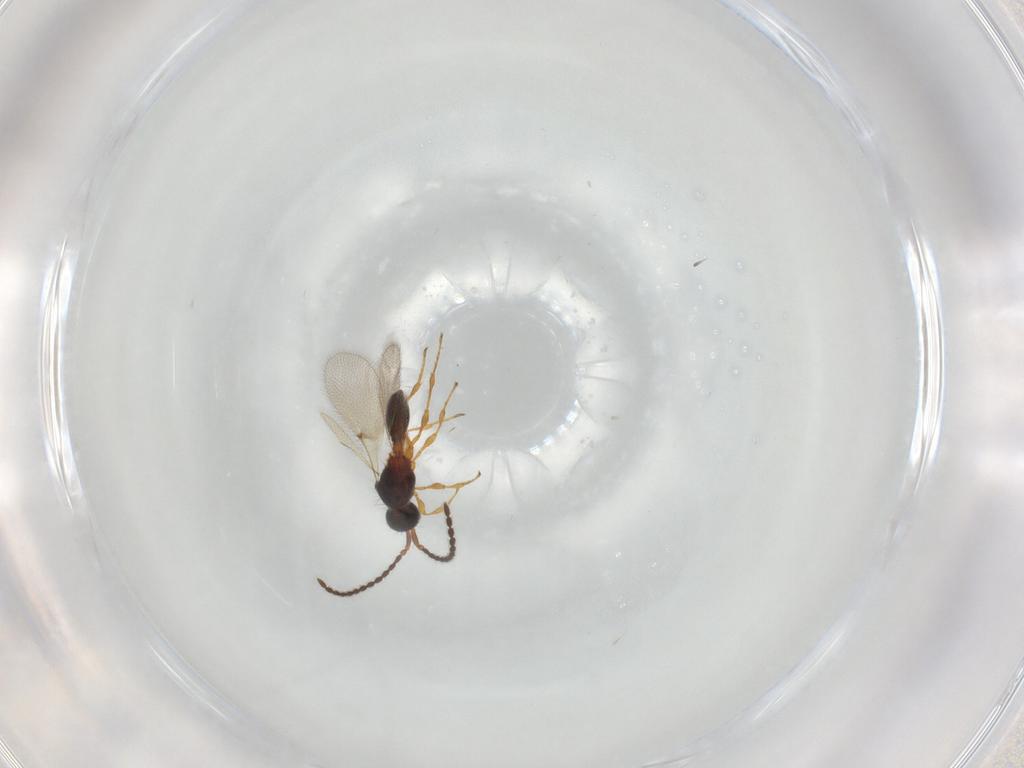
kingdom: Animalia
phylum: Arthropoda
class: Insecta
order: Hymenoptera
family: Diapriidae
